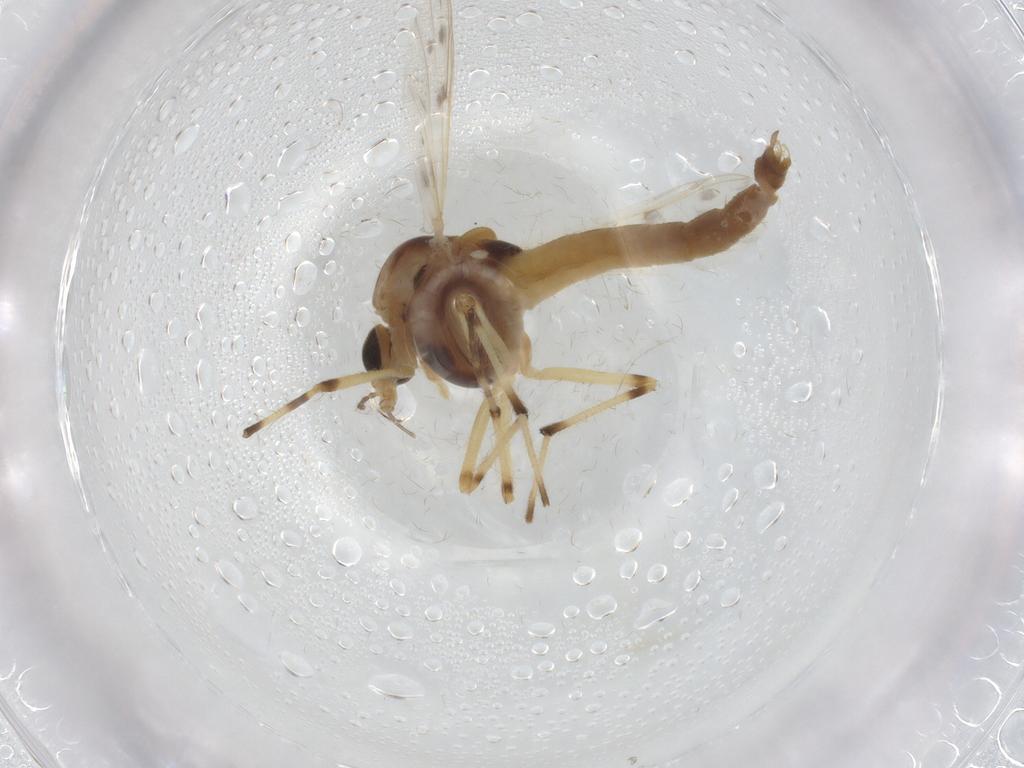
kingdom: Animalia
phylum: Arthropoda
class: Insecta
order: Diptera
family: Chironomidae
